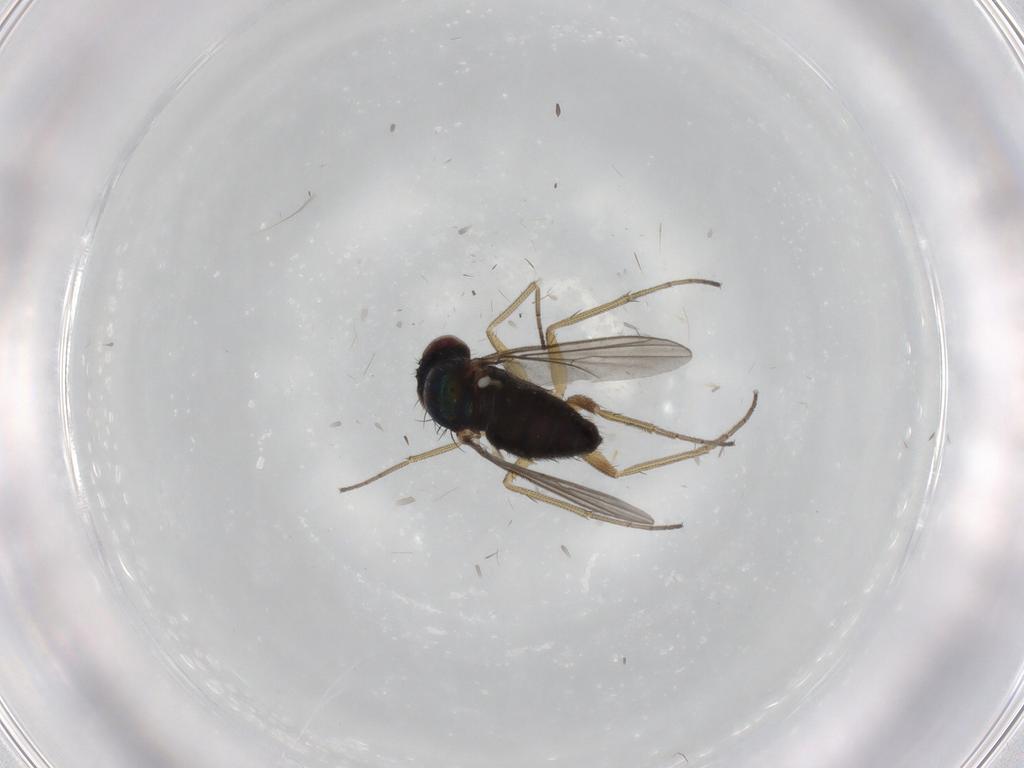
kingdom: Animalia
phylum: Arthropoda
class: Insecta
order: Diptera
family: Dolichopodidae
